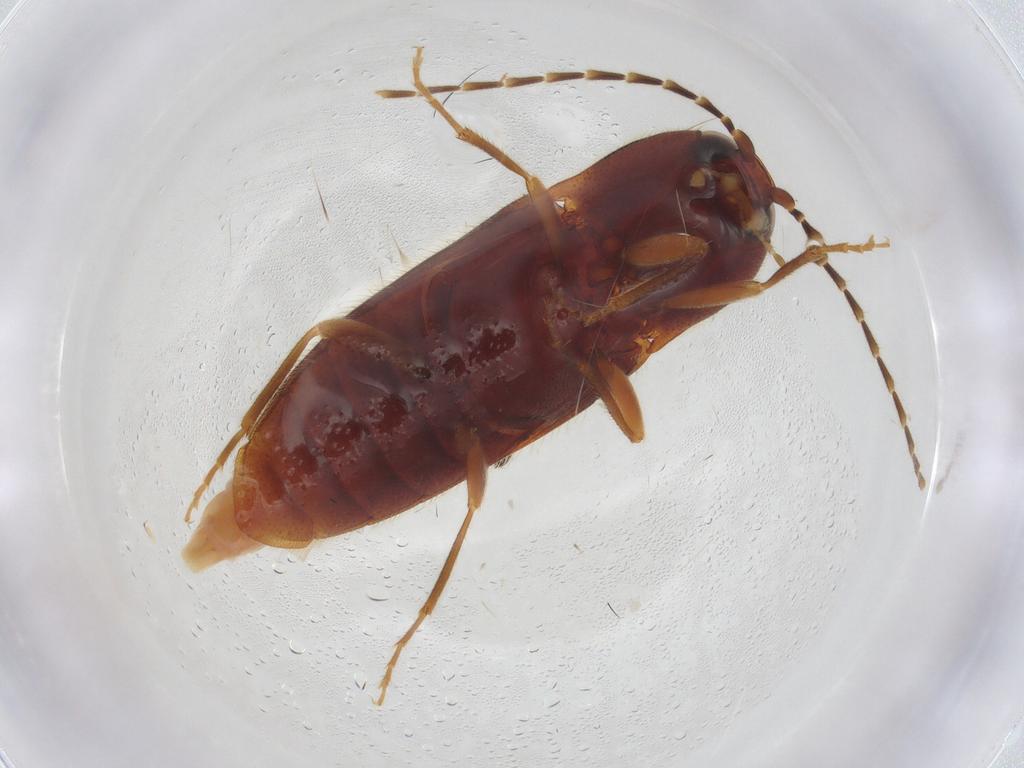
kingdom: Animalia
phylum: Arthropoda
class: Insecta
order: Coleoptera
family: Elateridae
